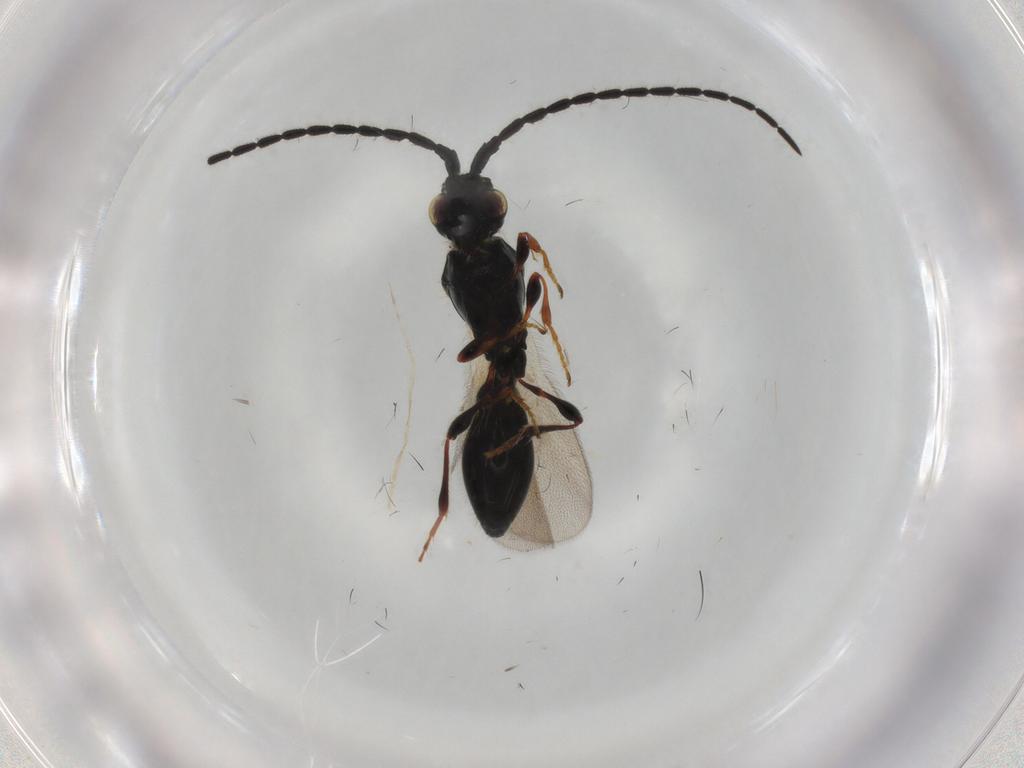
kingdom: Animalia
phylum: Arthropoda
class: Insecta
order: Hymenoptera
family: Diapriidae
